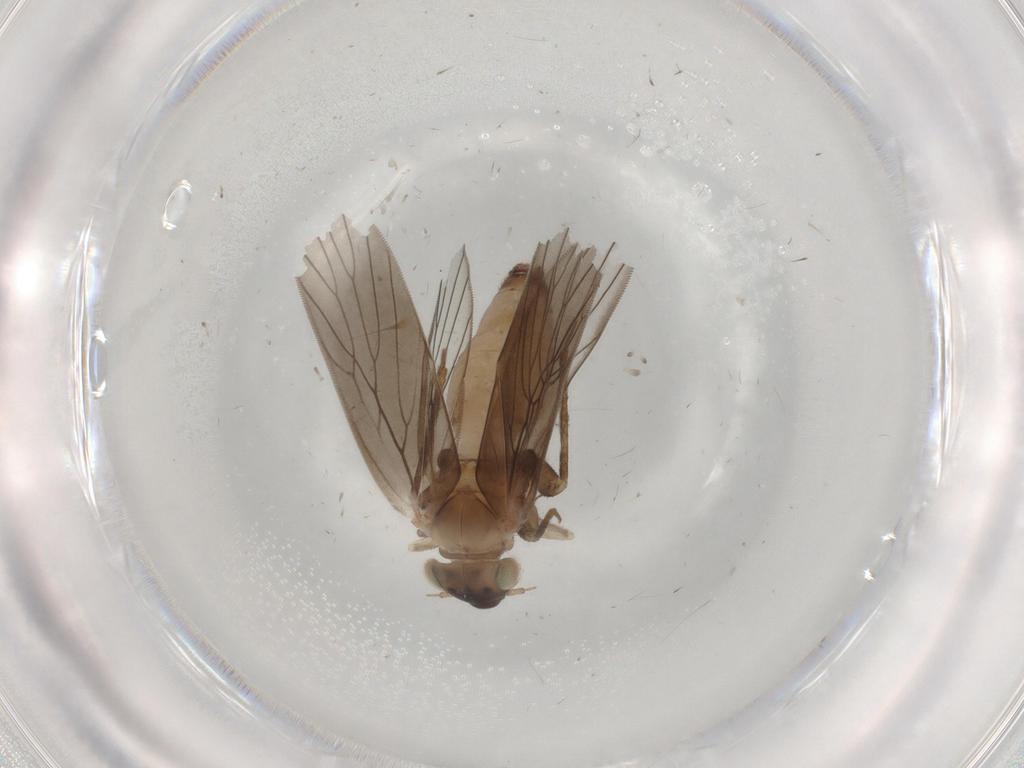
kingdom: Animalia
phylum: Arthropoda
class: Insecta
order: Psocodea
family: Lepidopsocidae
